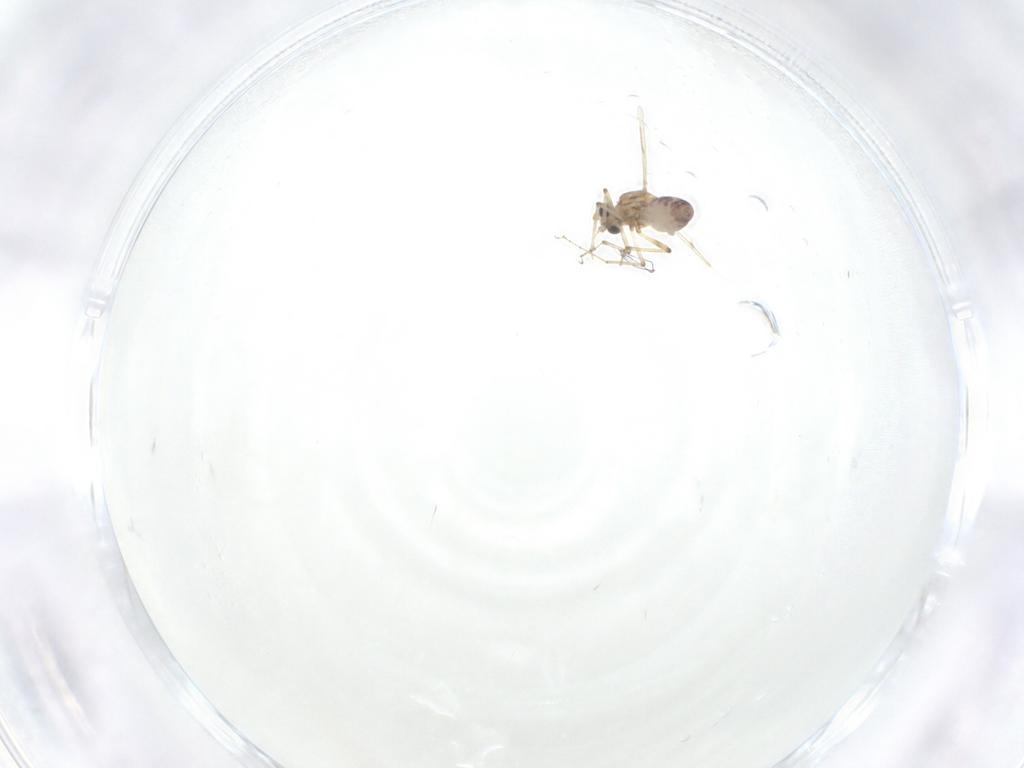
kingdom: Animalia
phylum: Arthropoda
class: Insecta
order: Diptera
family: Ceratopogonidae
